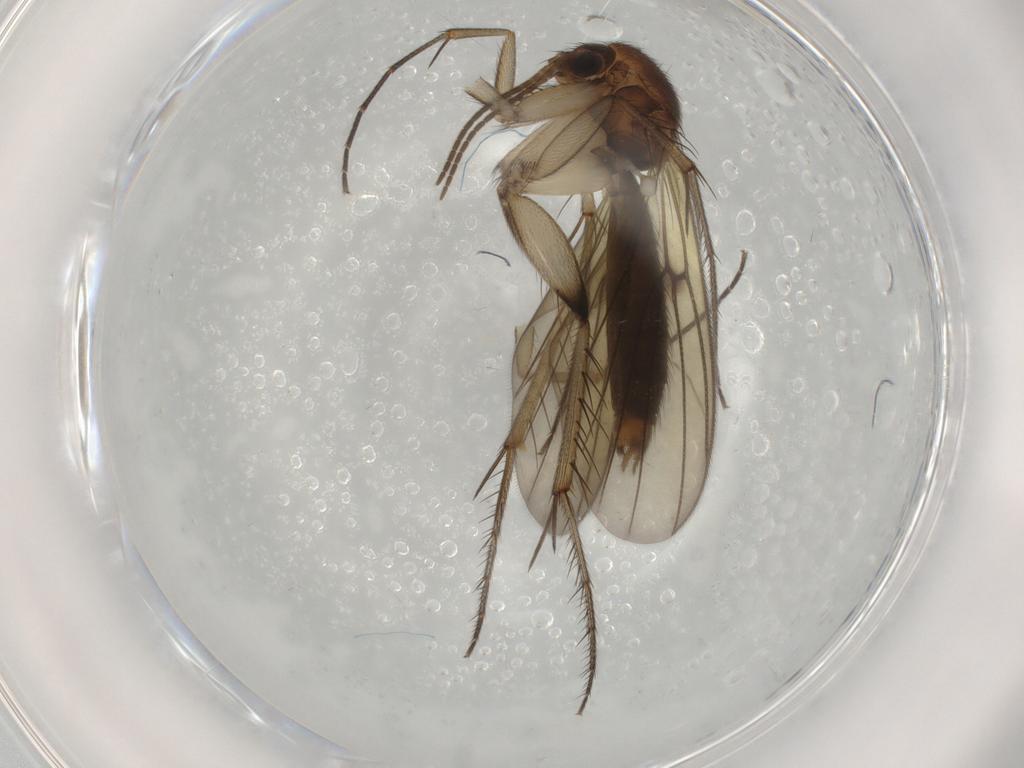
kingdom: Animalia
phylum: Arthropoda
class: Insecta
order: Diptera
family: Mycetophilidae
